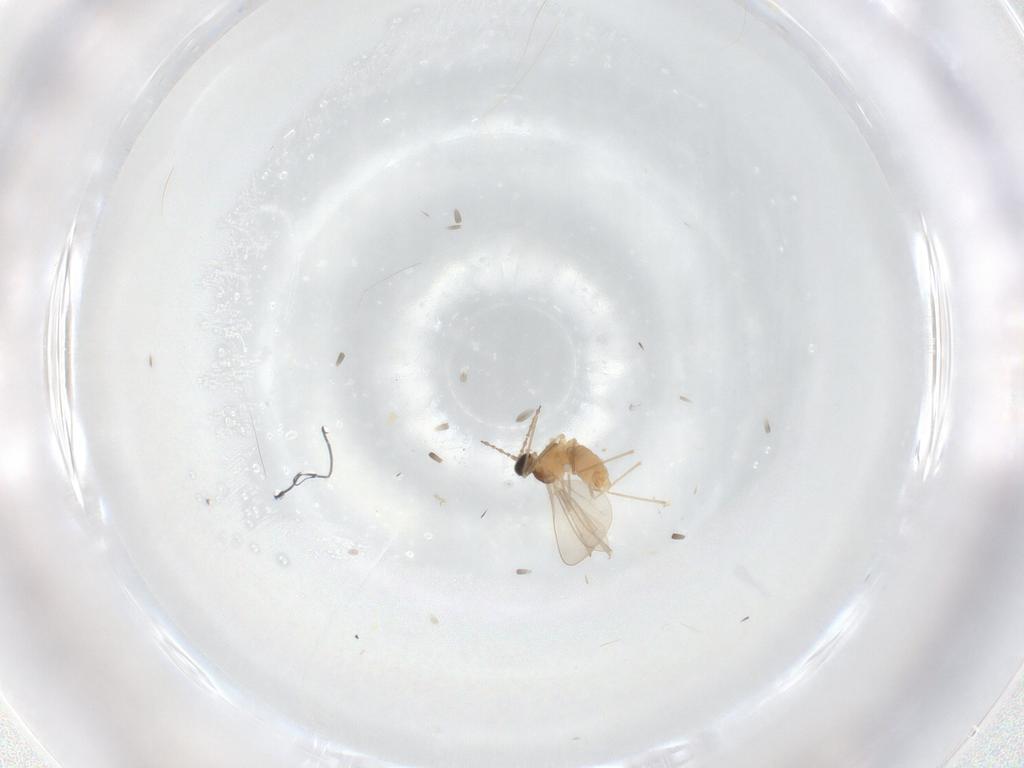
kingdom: Animalia
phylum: Arthropoda
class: Insecta
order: Diptera
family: Cecidomyiidae
